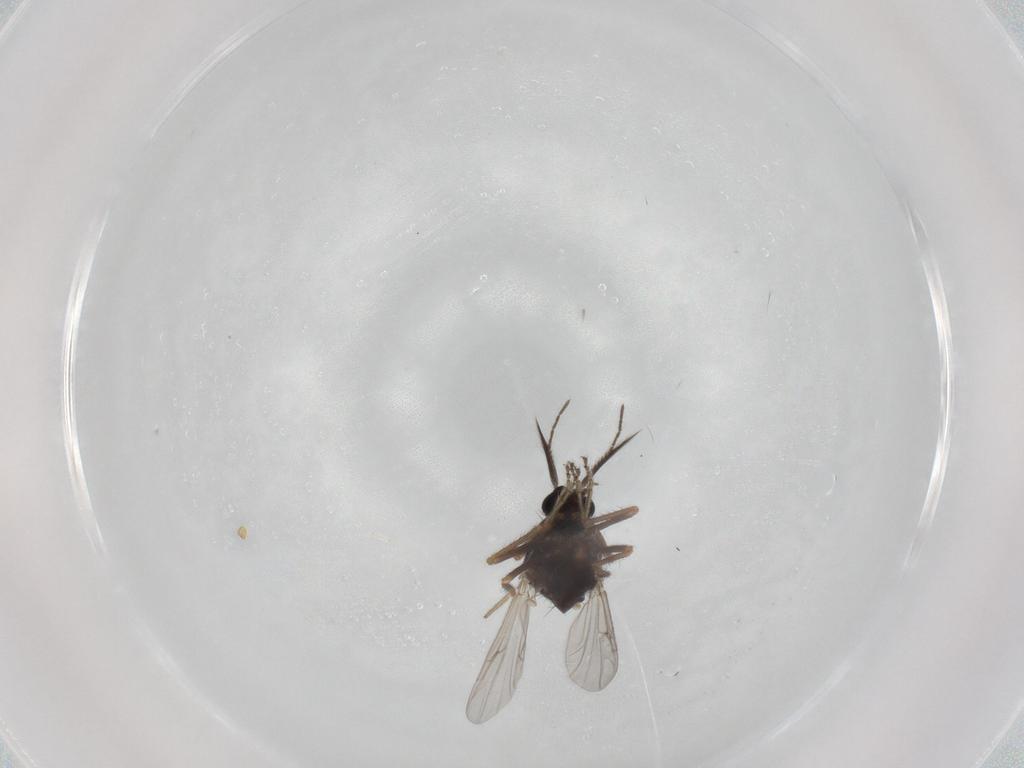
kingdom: Animalia
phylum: Arthropoda
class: Insecta
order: Diptera
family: Ceratopogonidae
